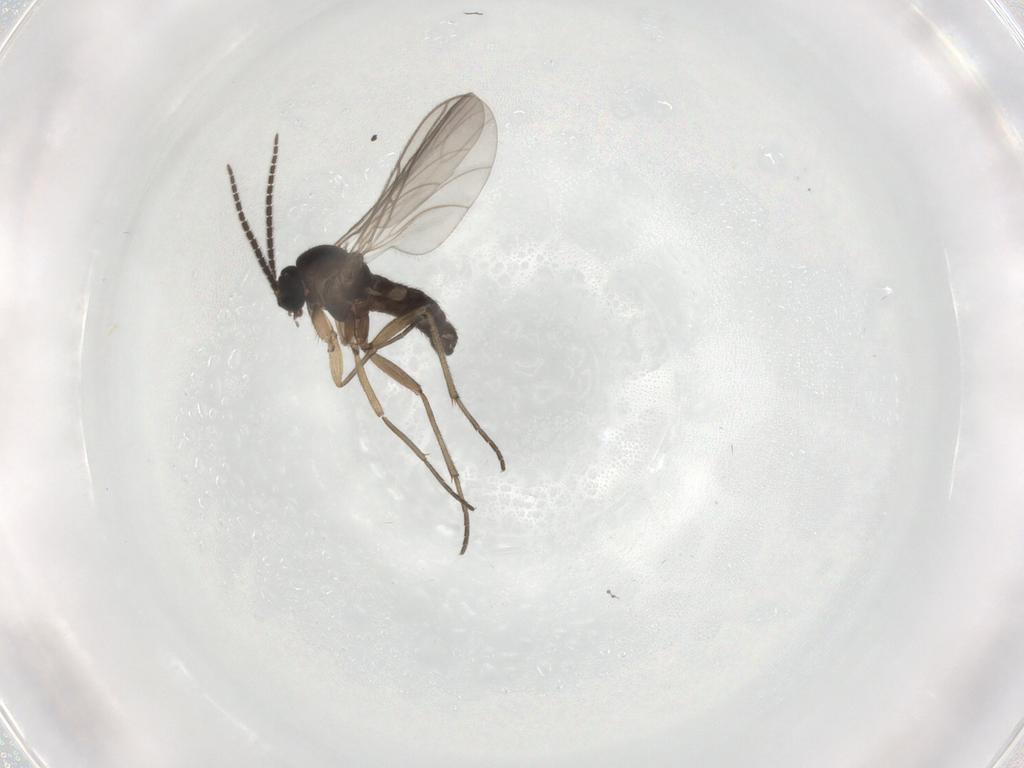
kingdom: Animalia
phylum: Arthropoda
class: Insecta
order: Diptera
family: Sciaridae
